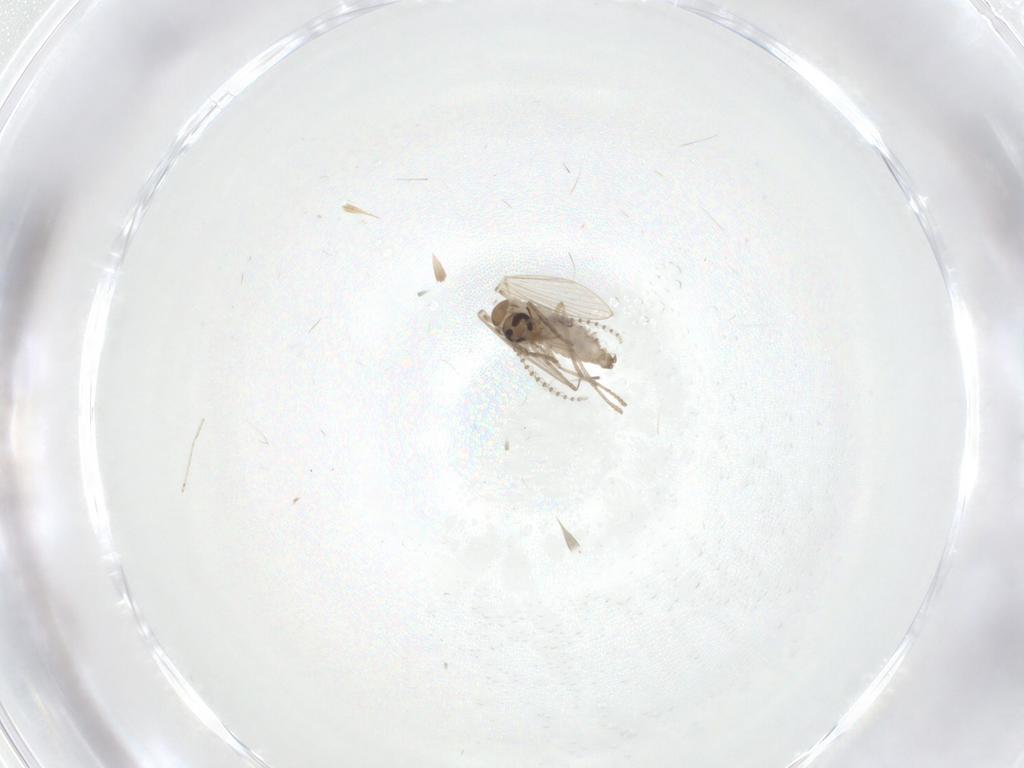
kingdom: Animalia
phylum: Arthropoda
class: Insecta
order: Diptera
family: Psychodidae
